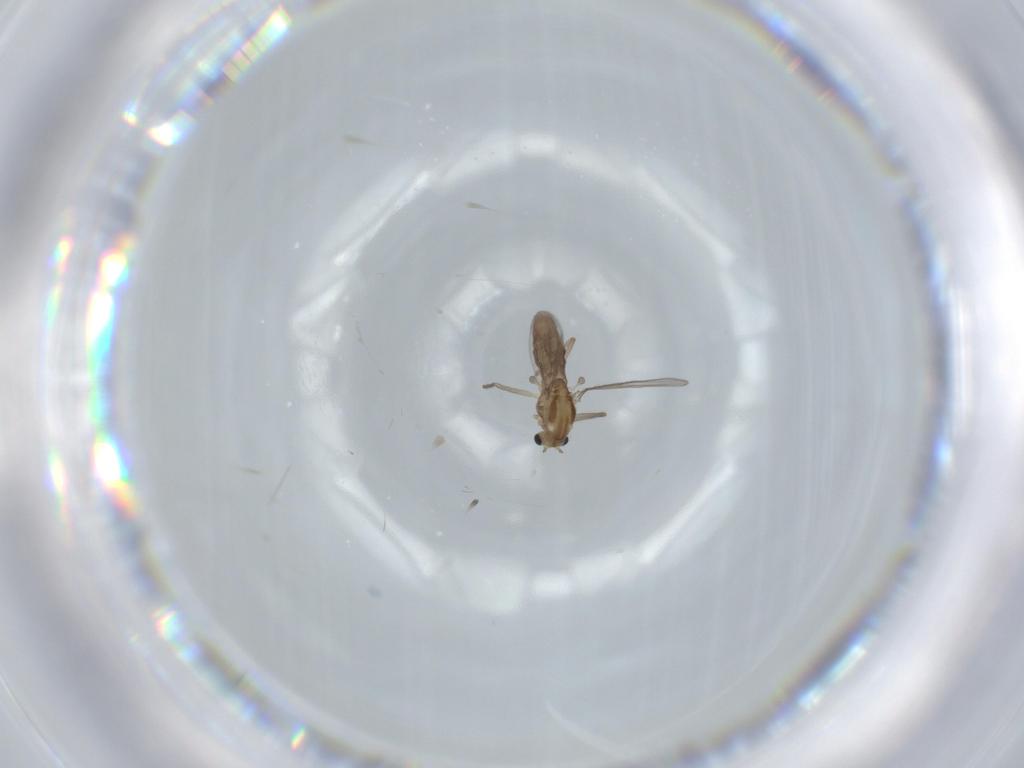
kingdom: Animalia
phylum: Arthropoda
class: Insecta
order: Diptera
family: Chironomidae
